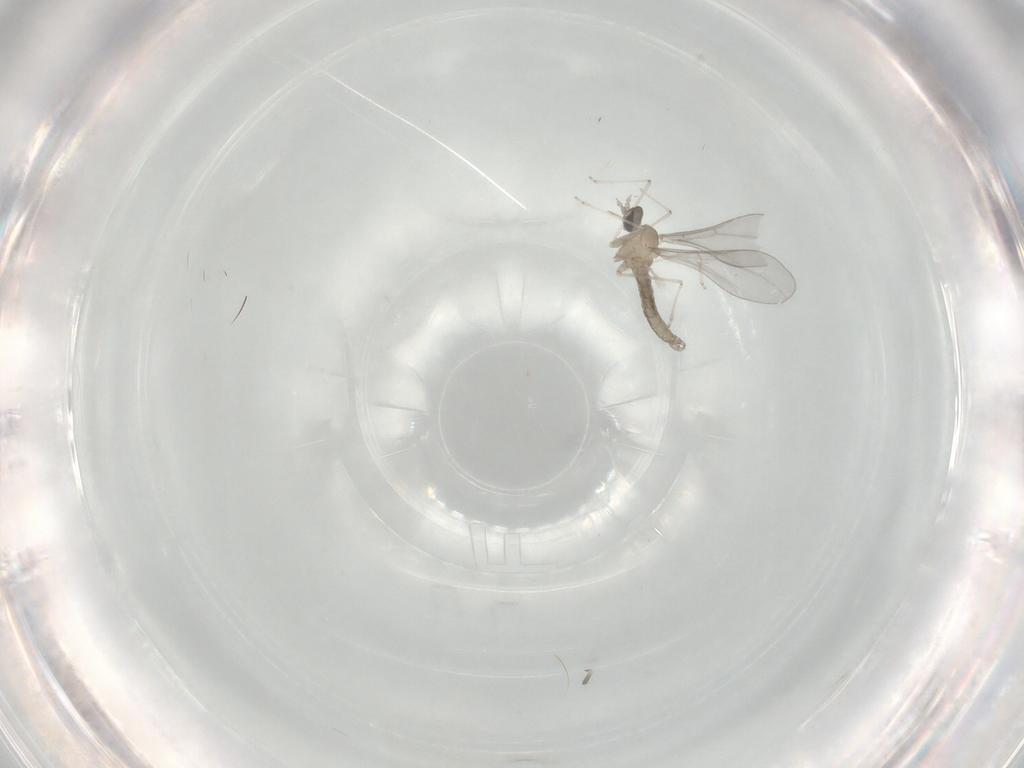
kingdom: Animalia
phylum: Arthropoda
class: Insecta
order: Diptera
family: Cecidomyiidae
